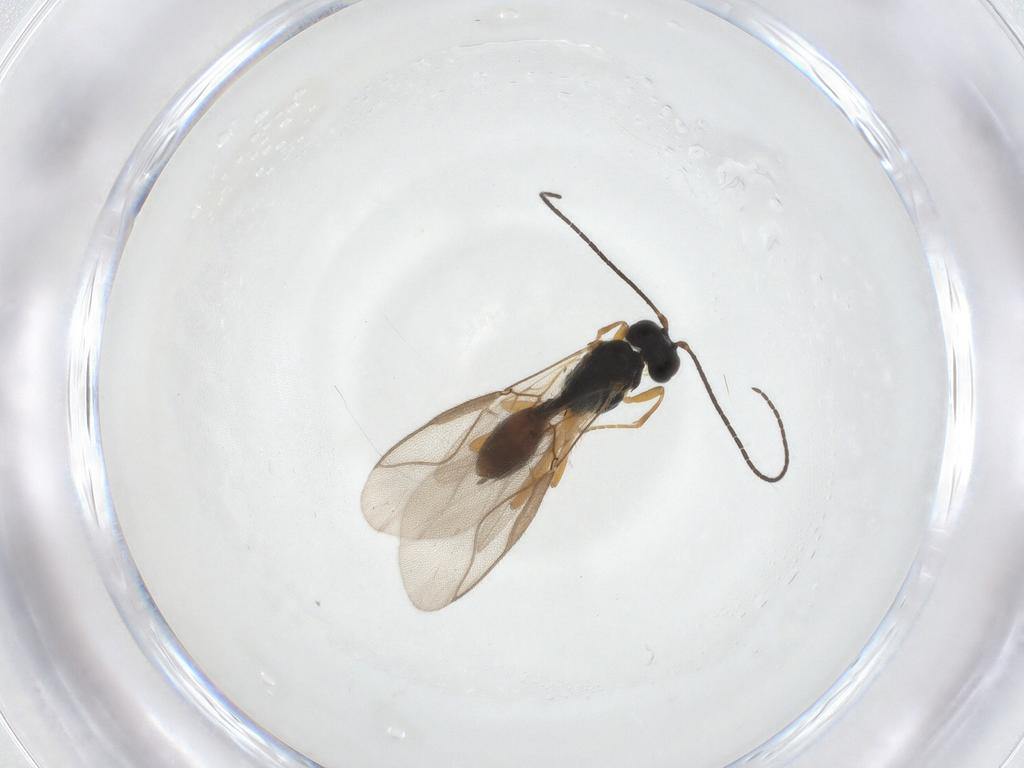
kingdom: Animalia
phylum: Arthropoda
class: Insecta
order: Hymenoptera
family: Braconidae
